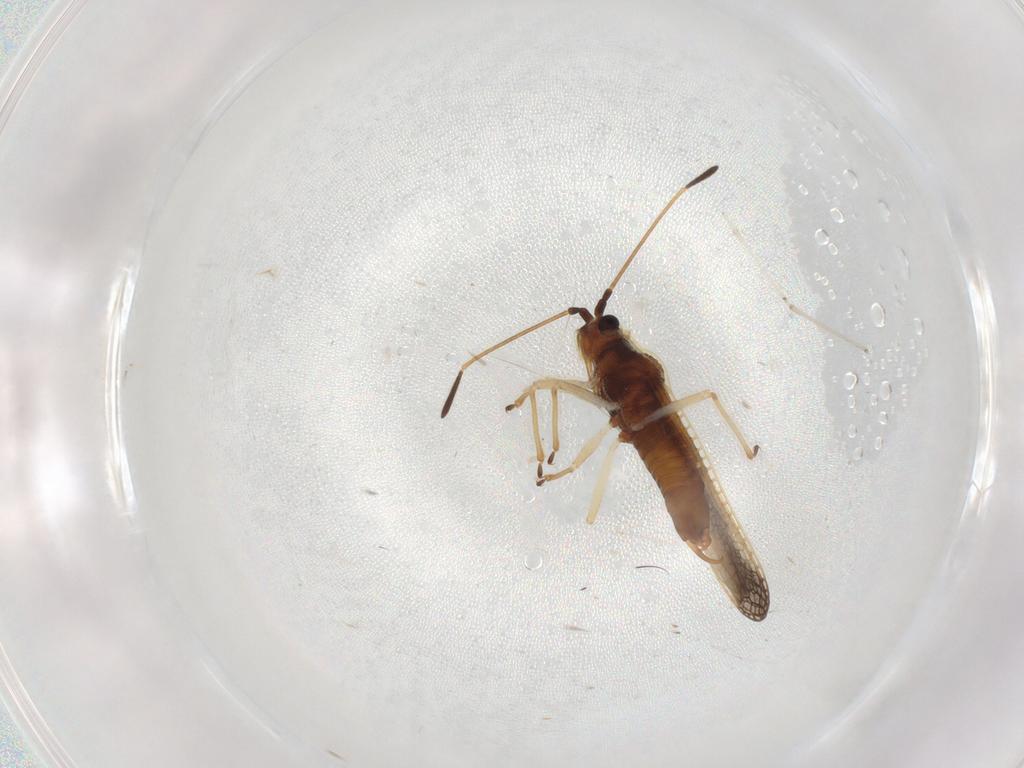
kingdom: Animalia
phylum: Arthropoda
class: Insecta
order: Hemiptera
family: Tingidae
